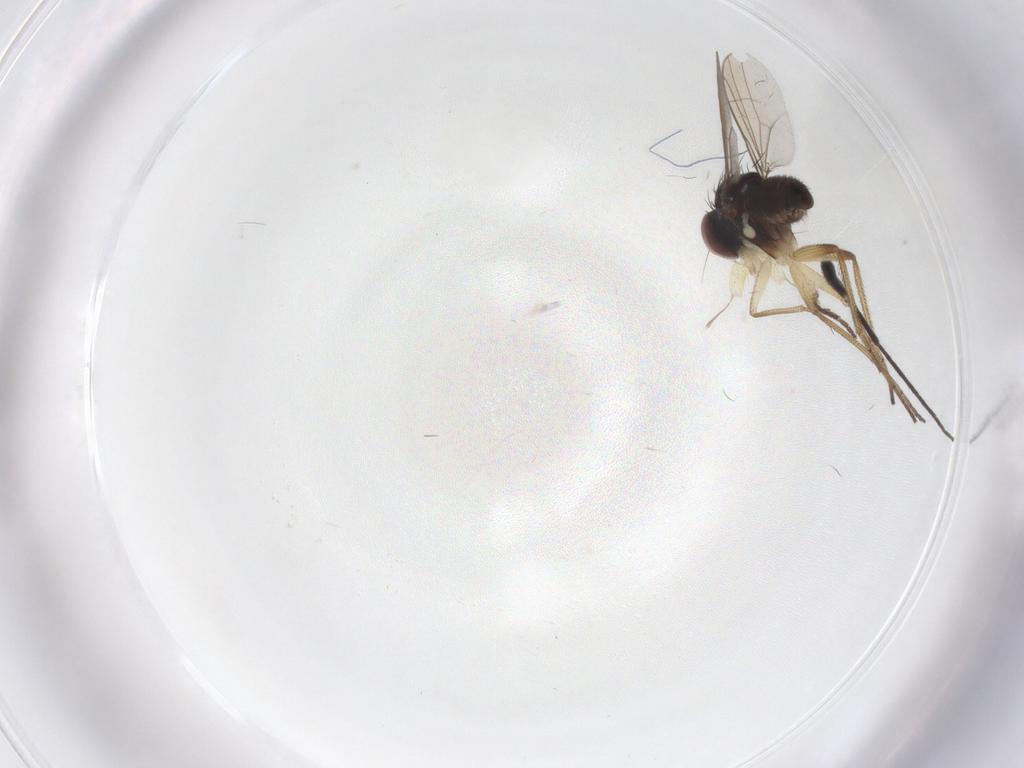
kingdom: Animalia
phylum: Arthropoda
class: Insecta
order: Diptera
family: Dolichopodidae
